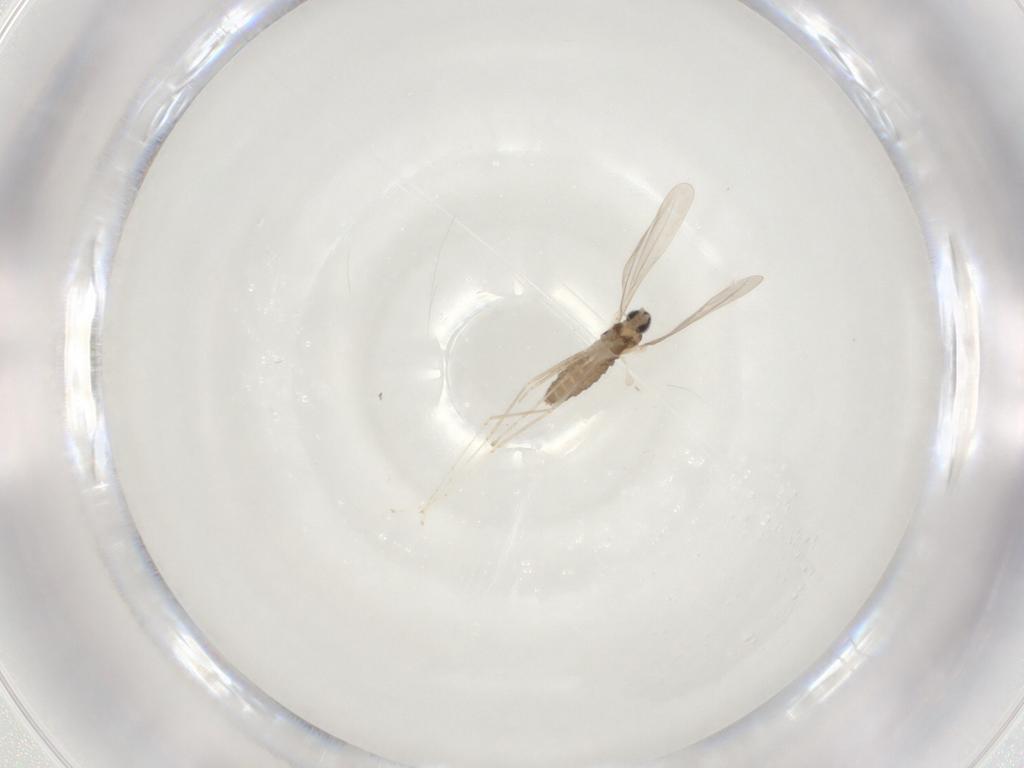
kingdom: Animalia
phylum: Arthropoda
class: Insecta
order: Diptera
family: Cecidomyiidae
